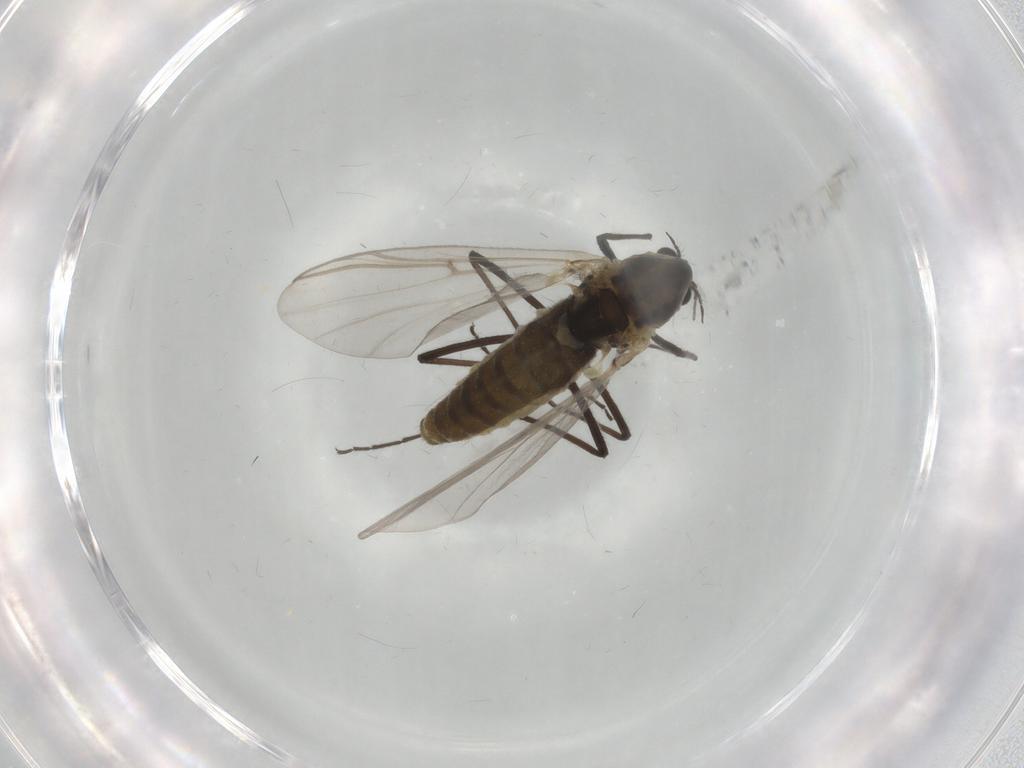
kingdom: Animalia
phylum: Arthropoda
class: Insecta
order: Diptera
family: Chironomidae
